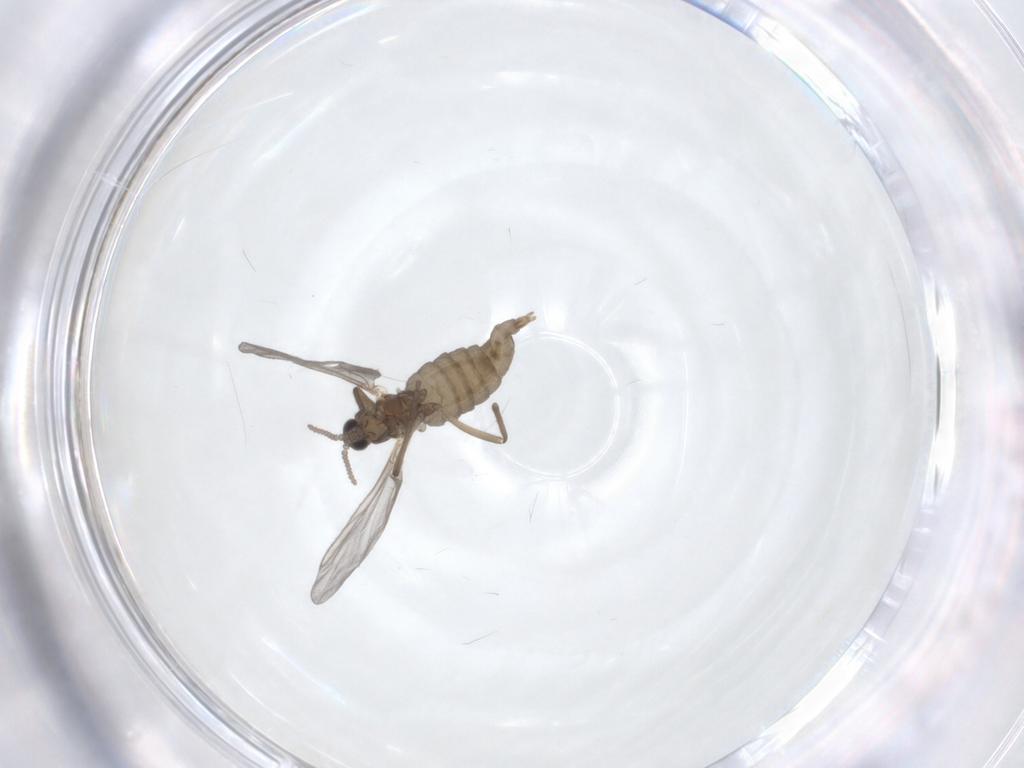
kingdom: Animalia
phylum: Arthropoda
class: Insecta
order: Diptera
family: Cecidomyiidae
